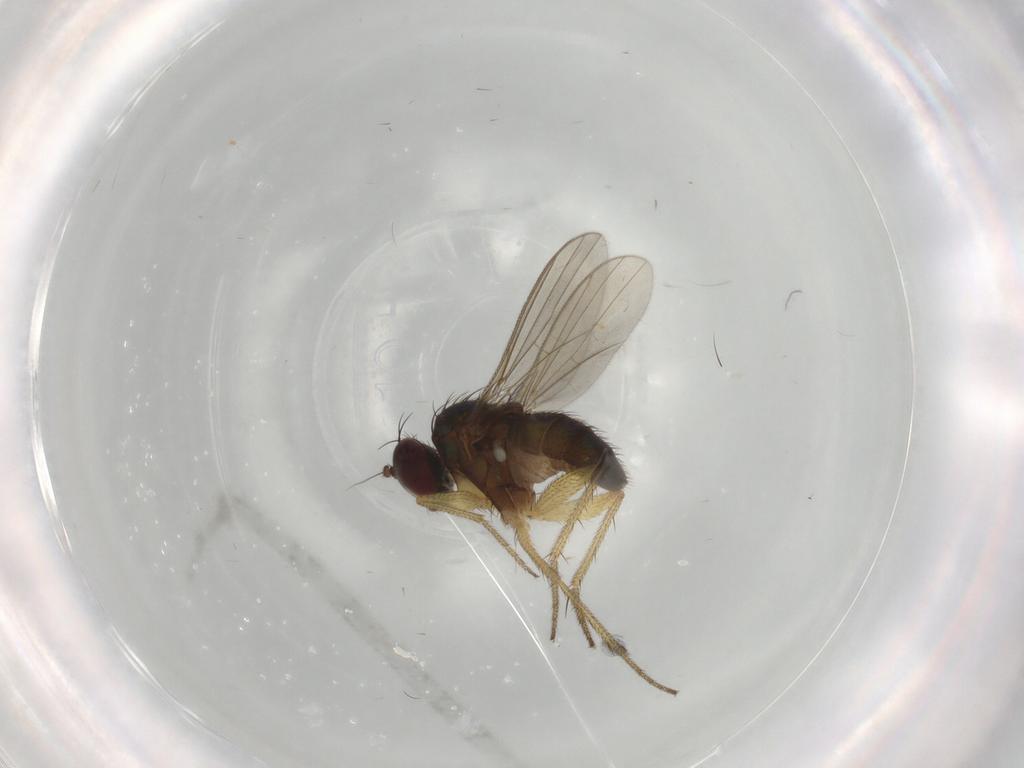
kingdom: Animalia
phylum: Arthropoda
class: Insecta
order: Diptera
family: Dolichopodidae
